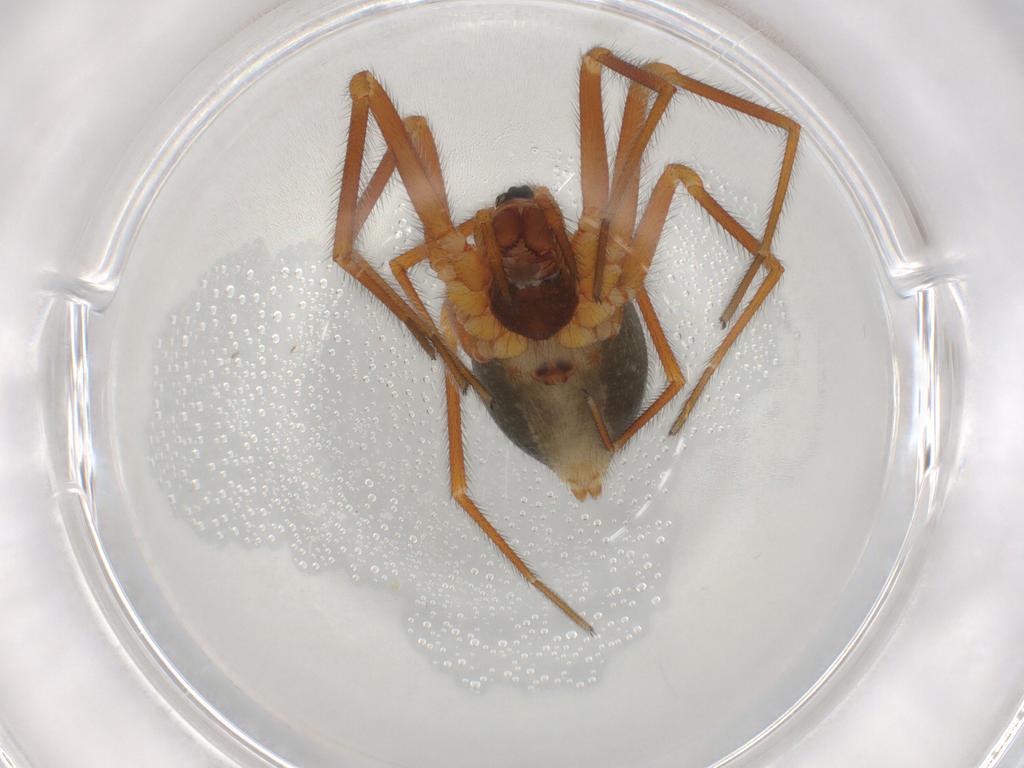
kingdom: Animalia
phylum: Arthropoda
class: Arachnida
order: Araneae
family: Linyphiidae
